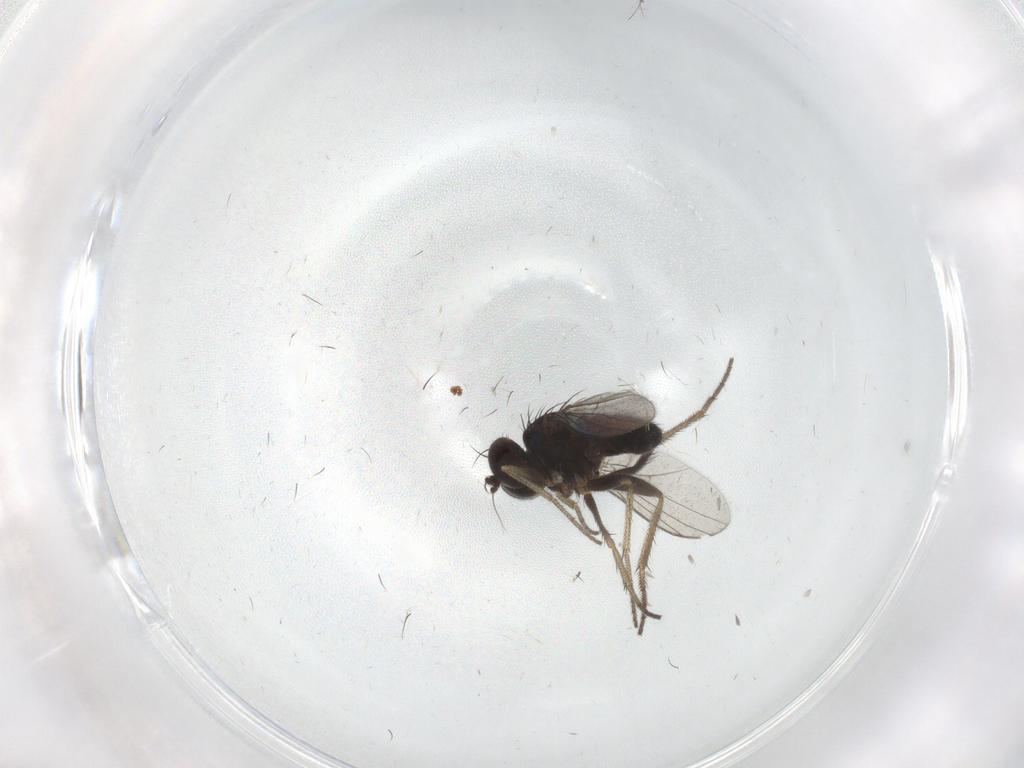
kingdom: Animalia
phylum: Arthropoda
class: Insecta
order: Diptera
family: Dolichopodidae
